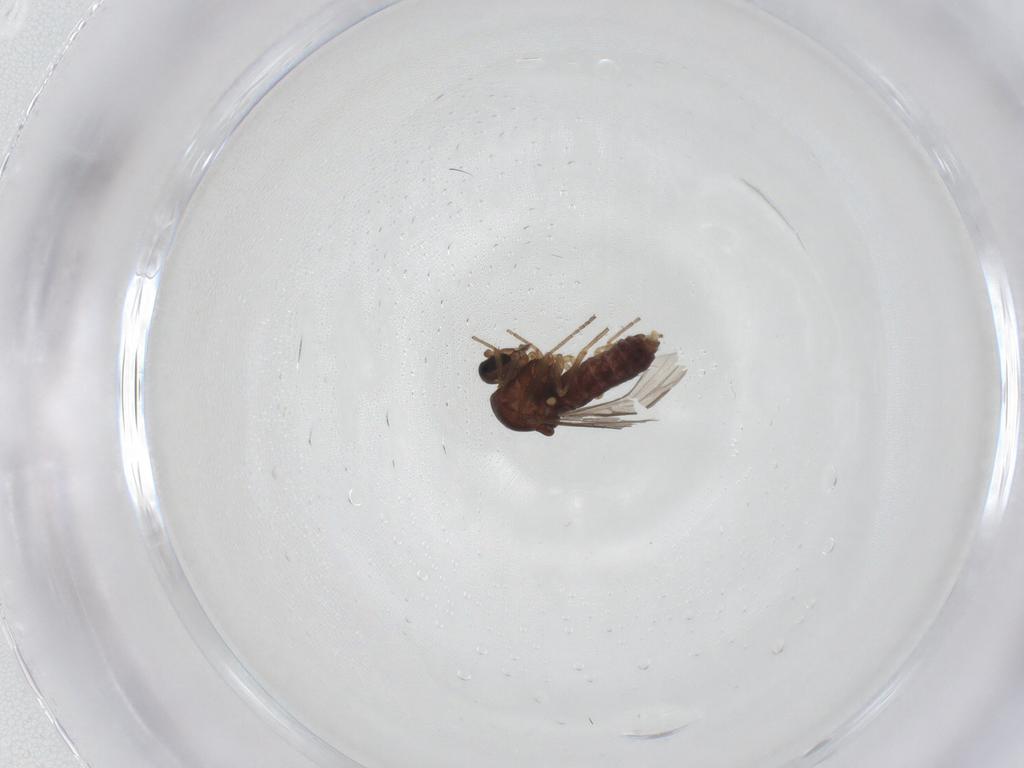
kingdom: Animalia
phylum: Arthropoda
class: Insecta
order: Diptera
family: Ceratopogonidae
